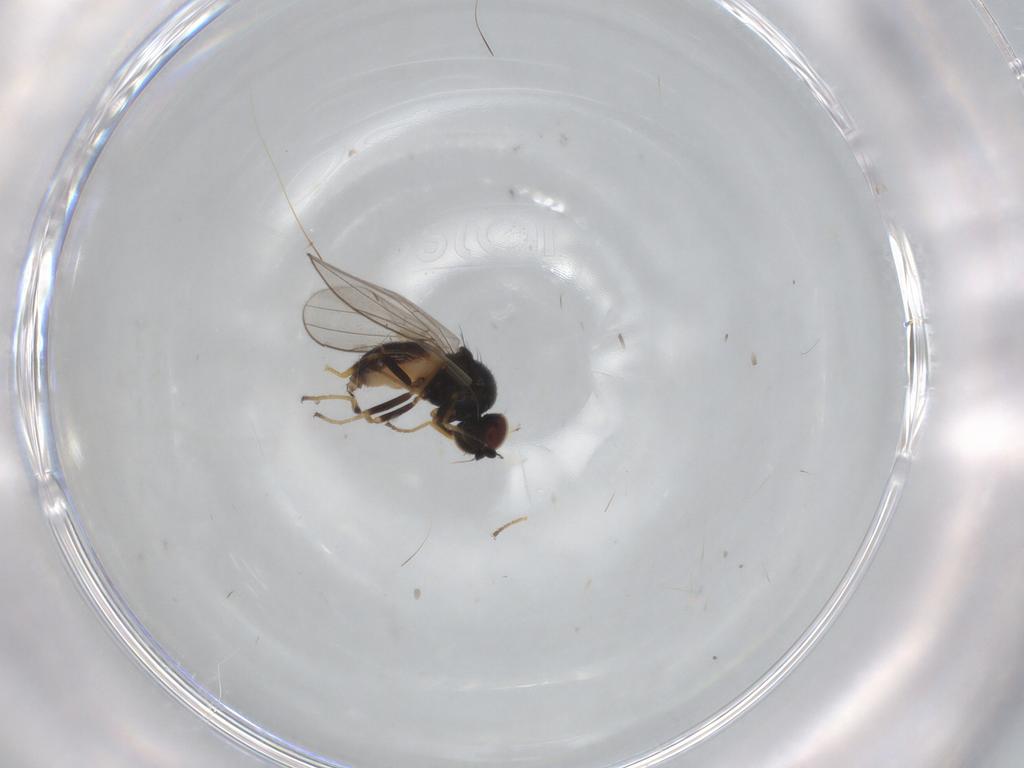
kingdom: Animalia
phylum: Arthropoda
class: Insecta
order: Diptera
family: Chloropidae
